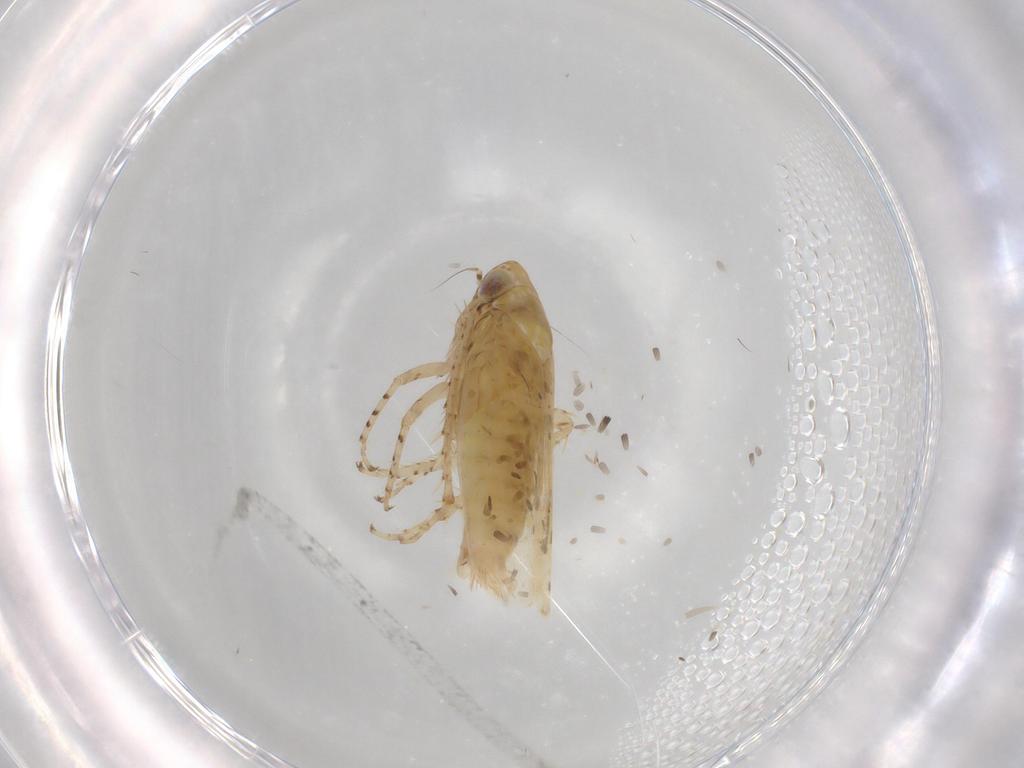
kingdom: Animalia
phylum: Arthropoda
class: Insecta
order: Hemiptera
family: Cicadellidae
